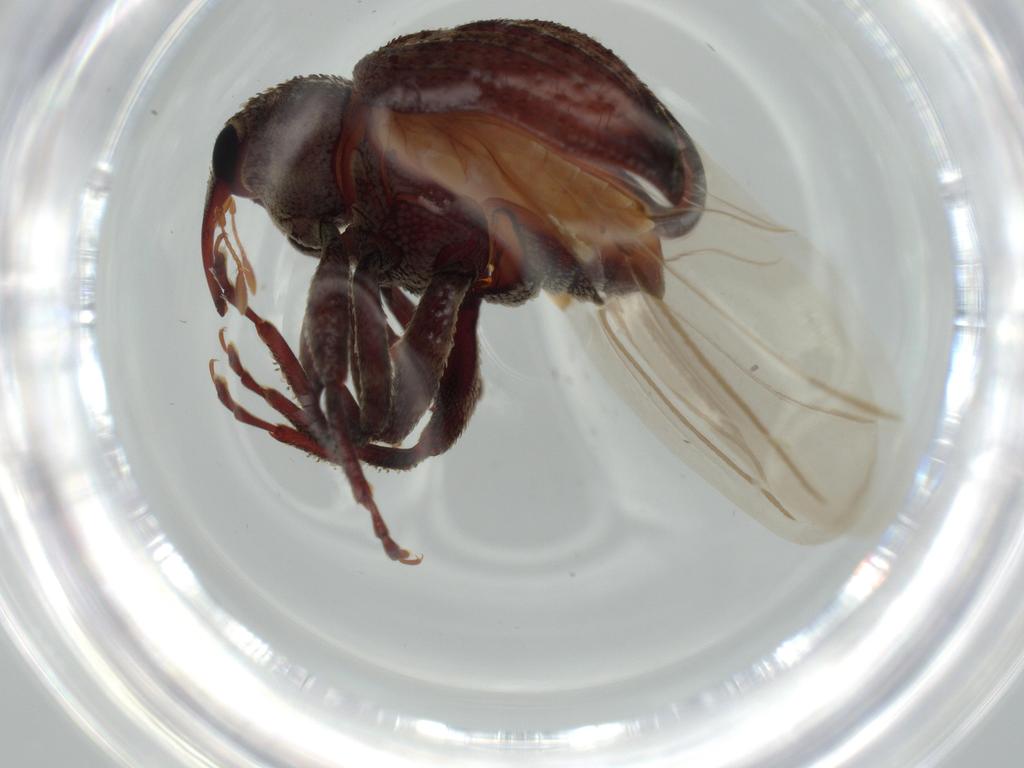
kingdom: Animalia
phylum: Arthropoda
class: Insecta
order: Coleoptera
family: Curculionidae
